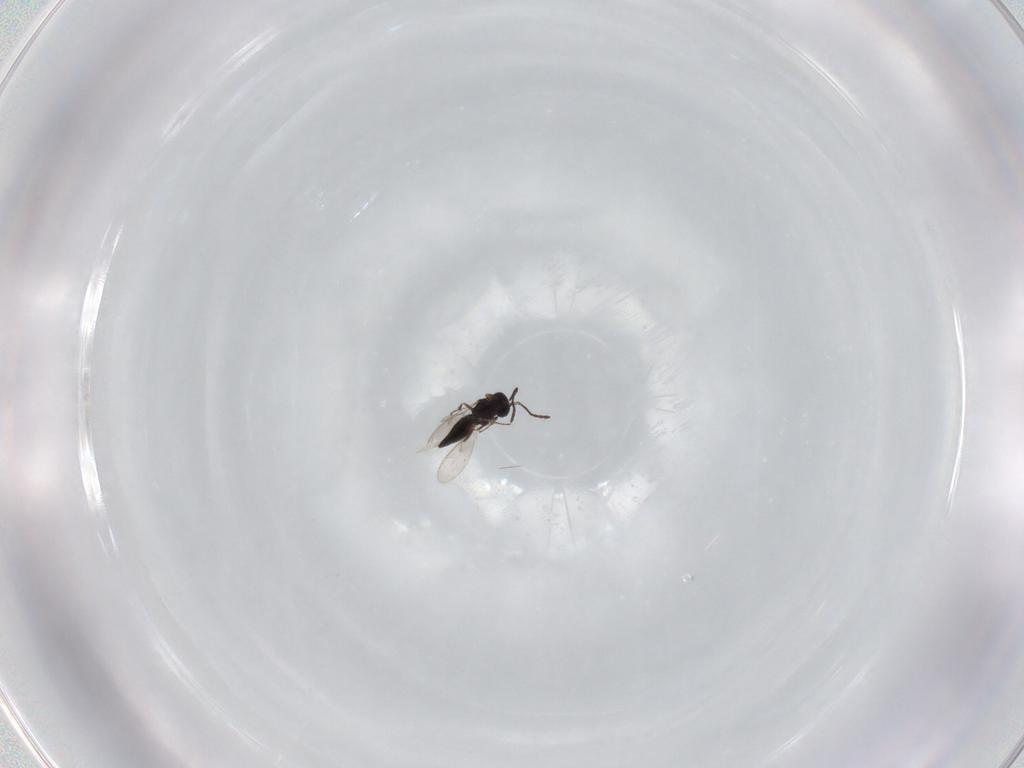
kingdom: Animalia
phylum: Arthropoda
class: Insecta
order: Hymenoptera
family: Scelionidae
